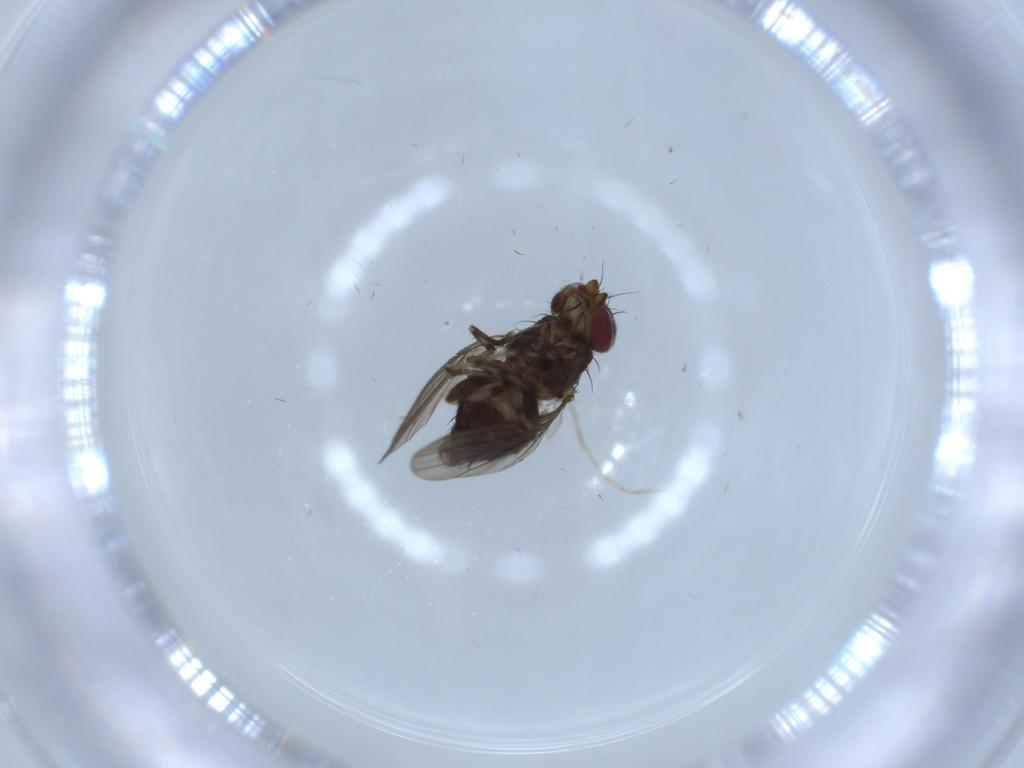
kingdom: Animalia
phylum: Arthropoda
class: Insecta
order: Diptera
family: Heleomyzidae
